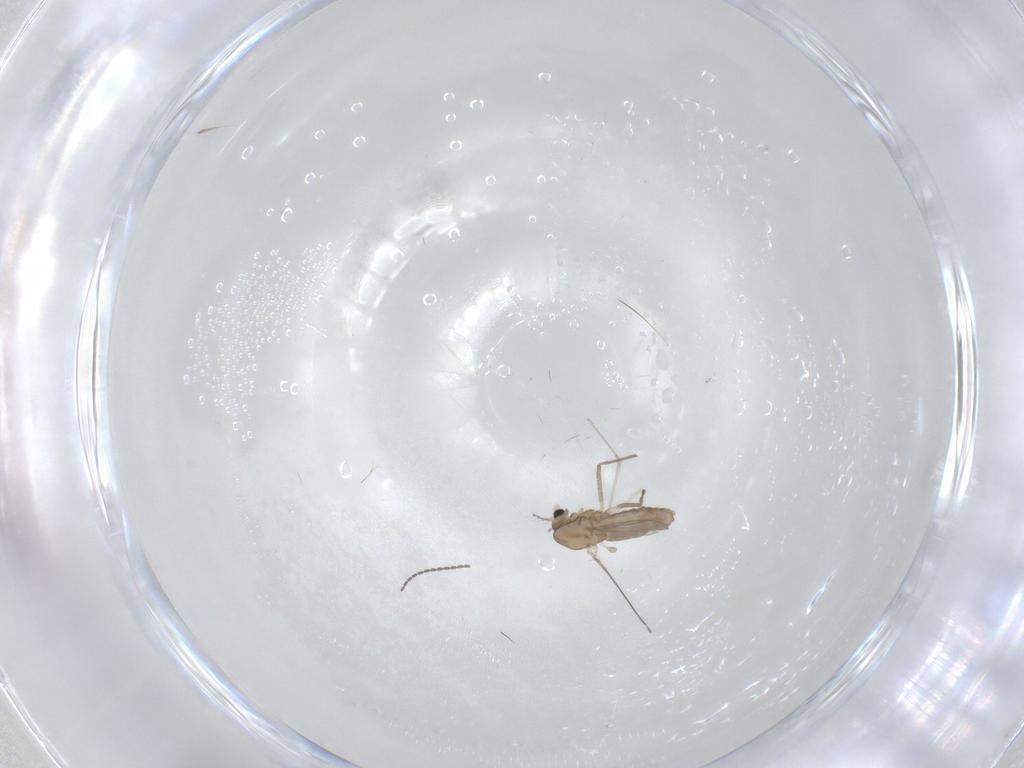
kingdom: Animalia
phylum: Arthropoda
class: Insecta
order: Diptera
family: Chironomidae
